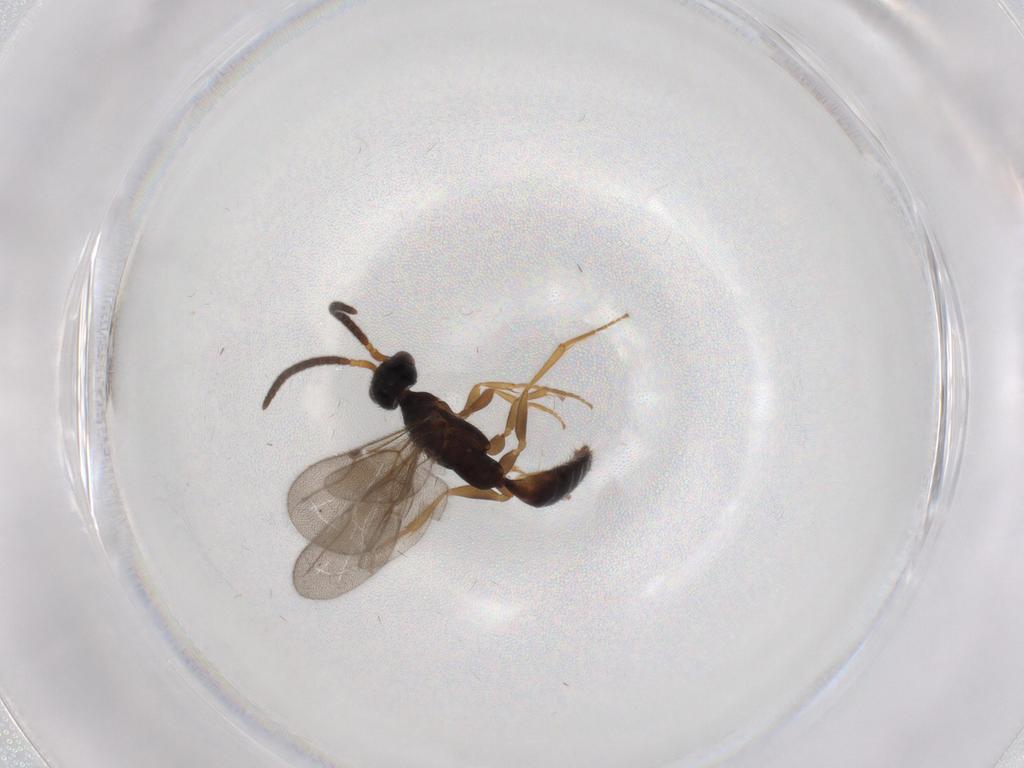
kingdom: Animalia
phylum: Arthropoda
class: Insecta
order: Hymenoptera
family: Bethylidae
